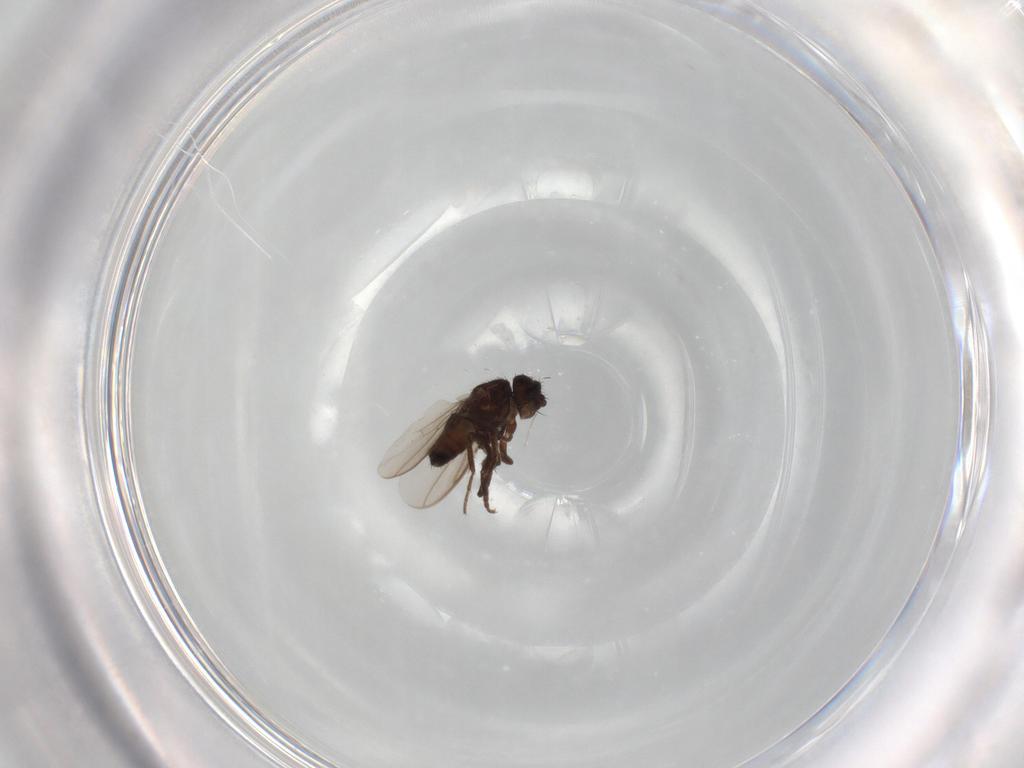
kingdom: Animalia
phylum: Arthropoda
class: Insecta
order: Diptera
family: Sphaeroceridae
